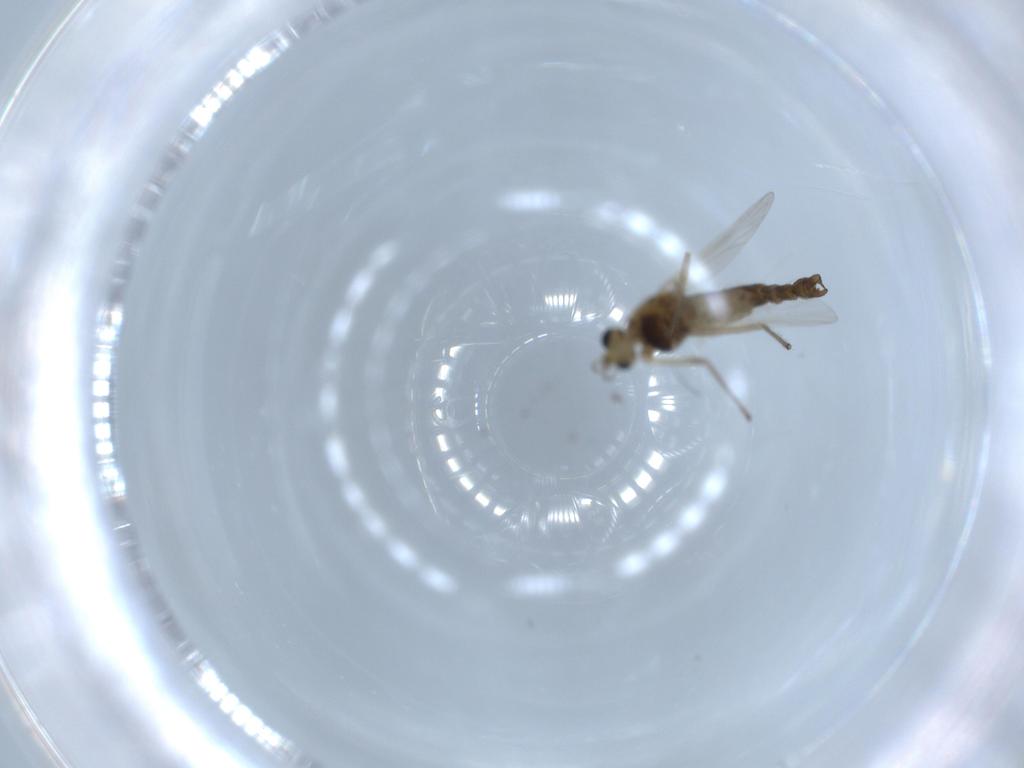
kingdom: Animalia
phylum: Arthropoda
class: Insecta
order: Diptera
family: Chironomidae
